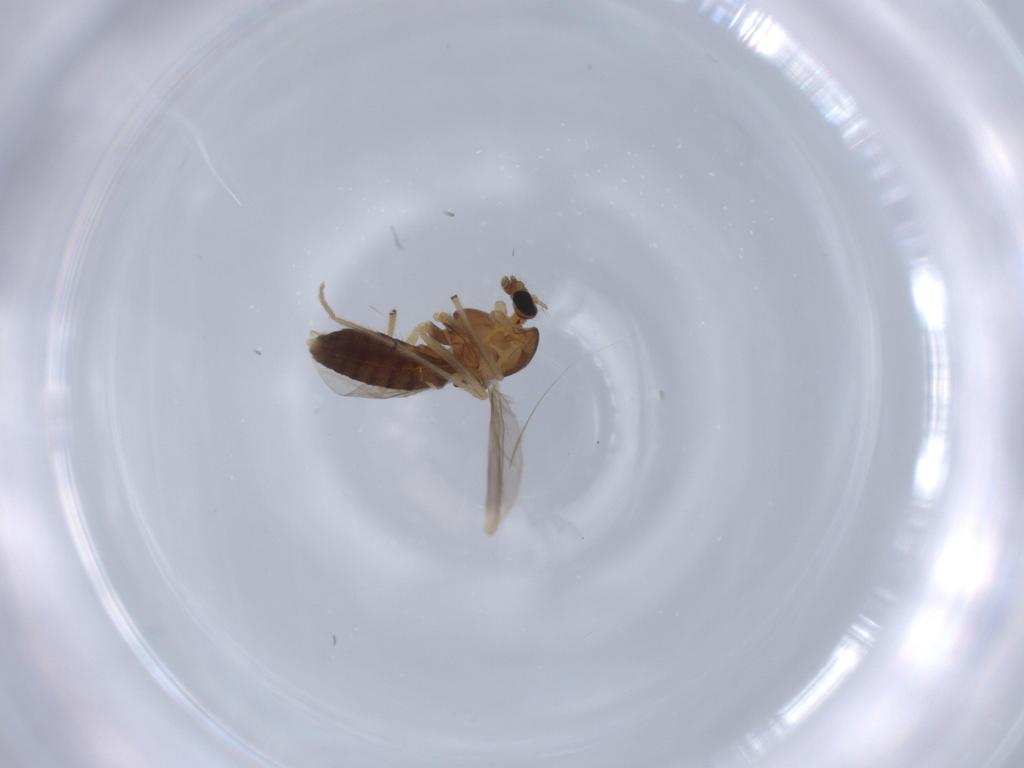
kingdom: Animalia
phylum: Arthropoda
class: Insecta
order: Diptera
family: Chironomidae
